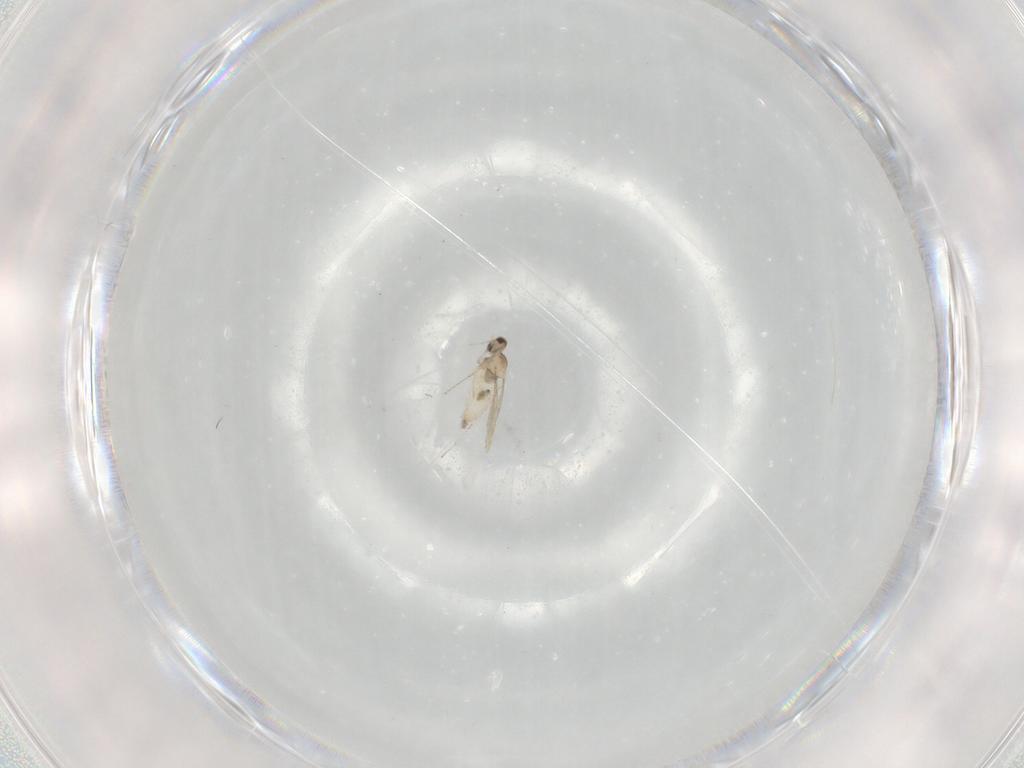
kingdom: Animalia
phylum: Arthropoda
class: Insecta
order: Diptera
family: Cecidomyiidae
